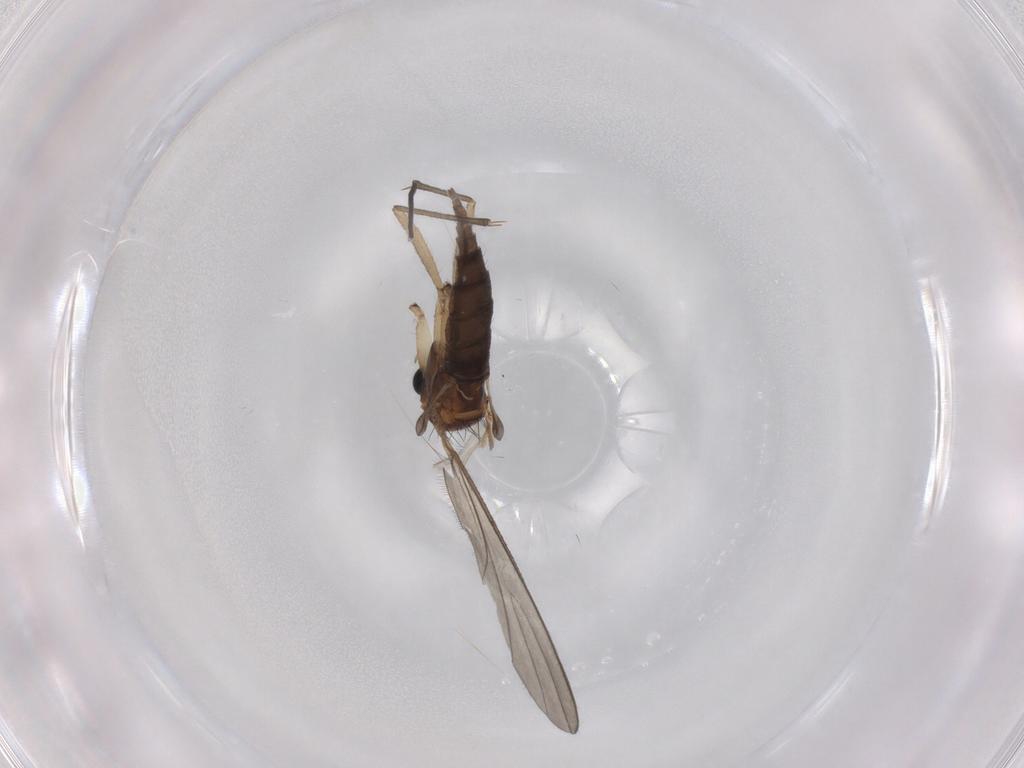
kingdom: Animalia
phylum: Arthropoda
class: Insecta
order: Diptera
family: Sciaridae
